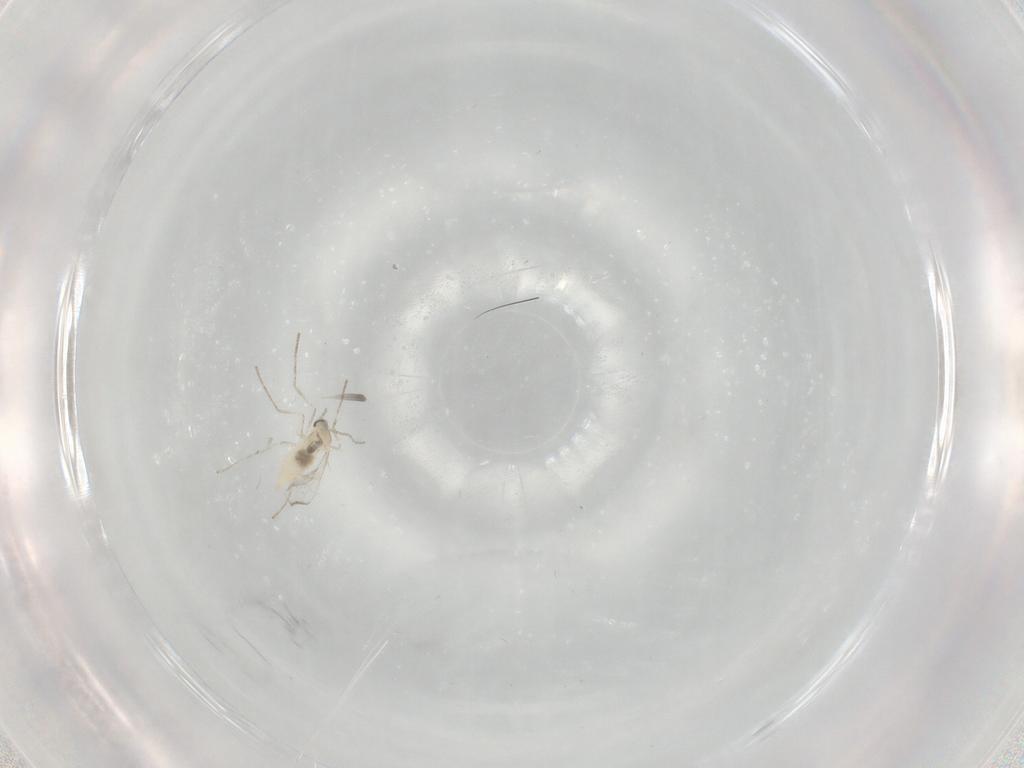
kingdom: Animalia
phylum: Arthropoda
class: Insecta
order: Diptera
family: Cecidomyiidae
